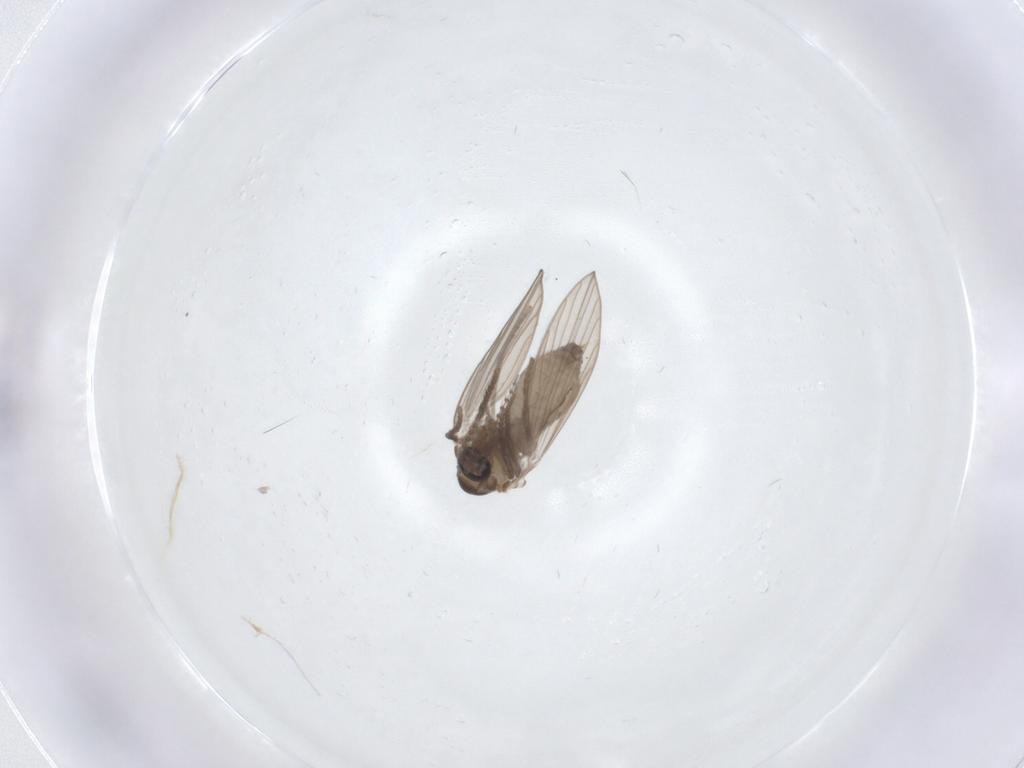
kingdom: Animalia
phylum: Arthropoda
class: Insecta
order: Diptera
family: Psychodidae
